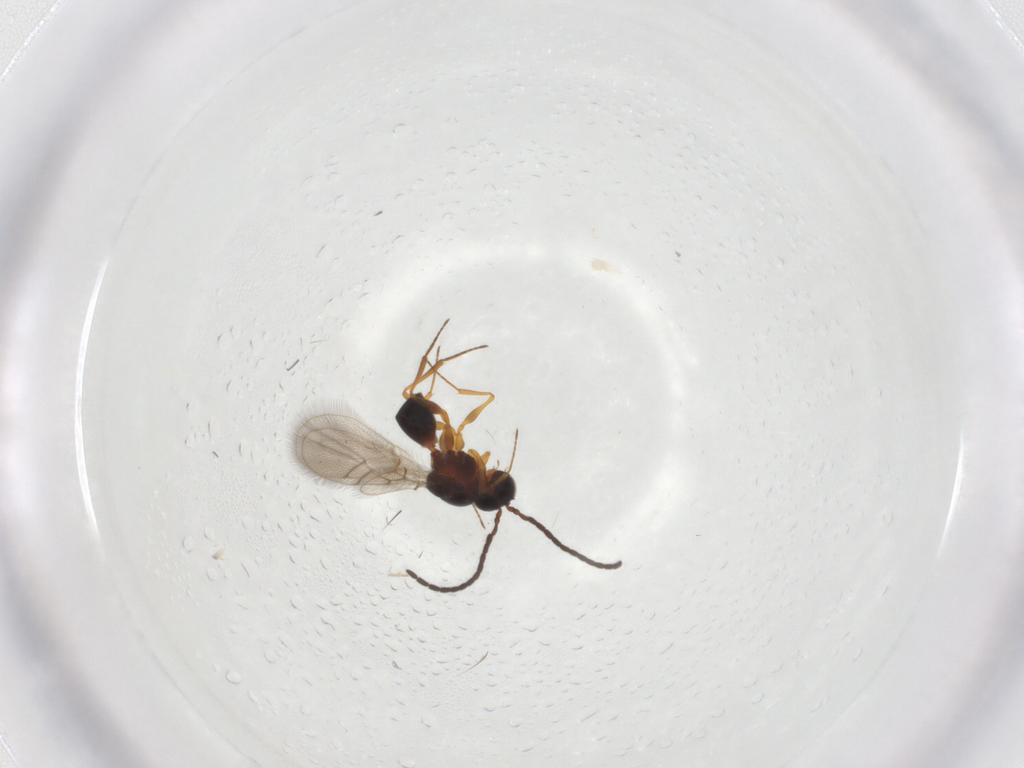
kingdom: Animalia
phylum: Arthropoda
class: Insecta
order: Hymenoptera
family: Figitidae
